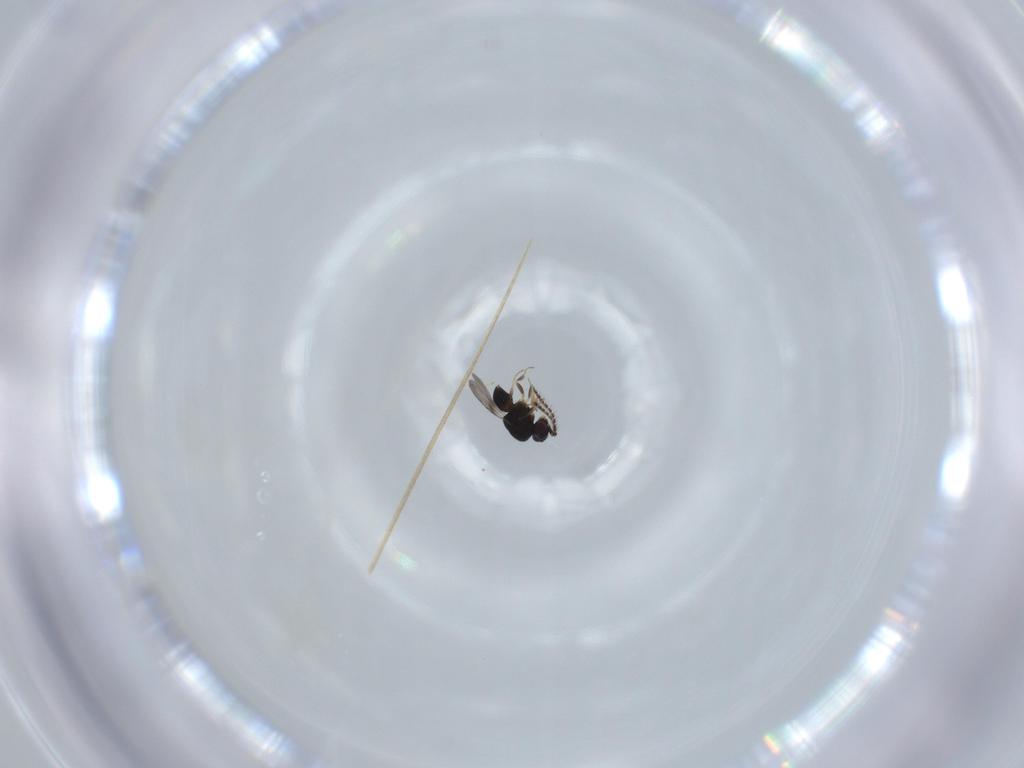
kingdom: Animalia
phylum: Arthropoda
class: Insecta
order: Hymenoptera
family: Ceraphronidae
